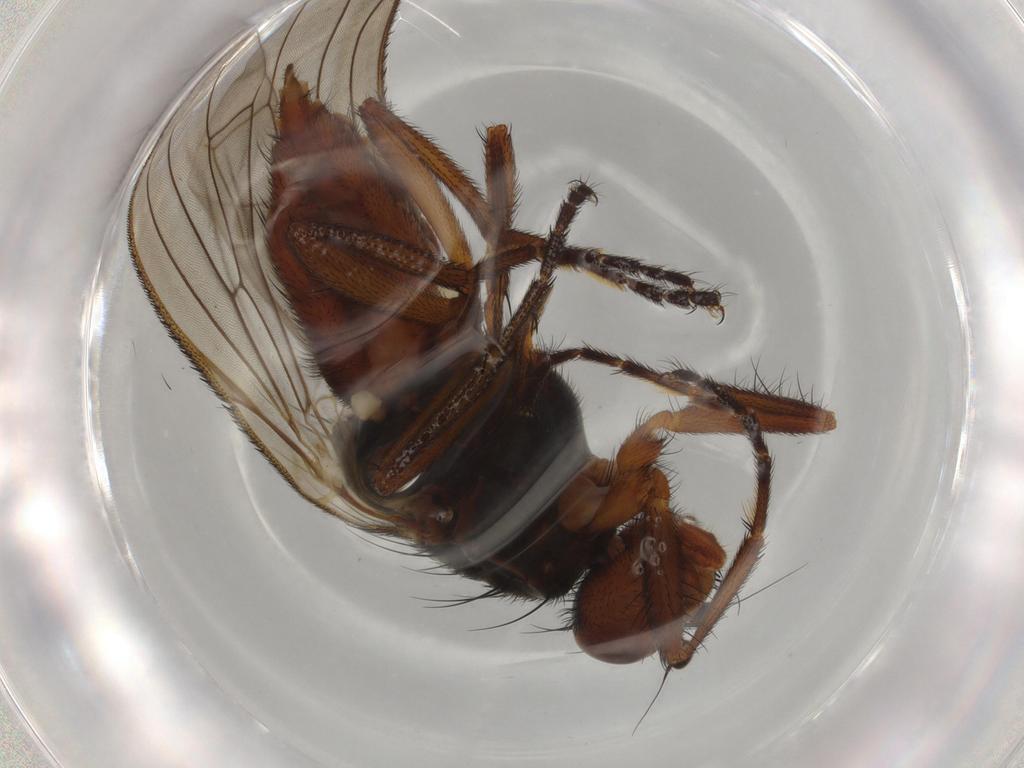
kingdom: Animalia
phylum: Arthropoda
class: Insecta
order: Diptera
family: Heleomyzidae
